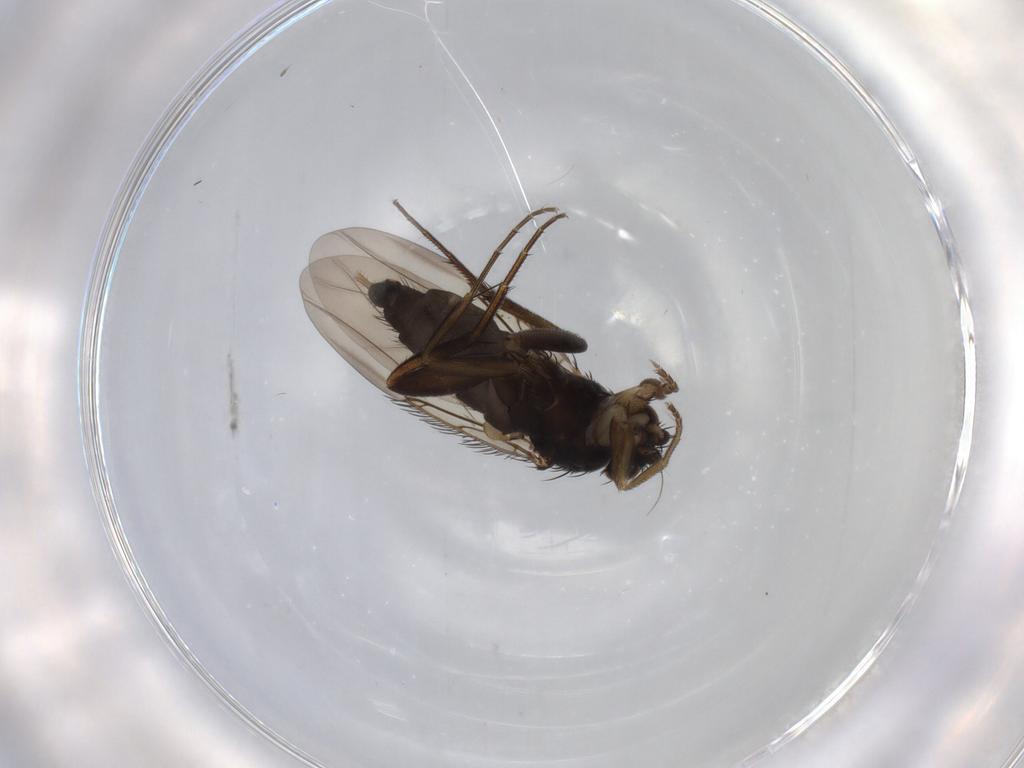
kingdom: Animalia
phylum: Arthropoda
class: Insecta
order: Diptera
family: Phoridae
